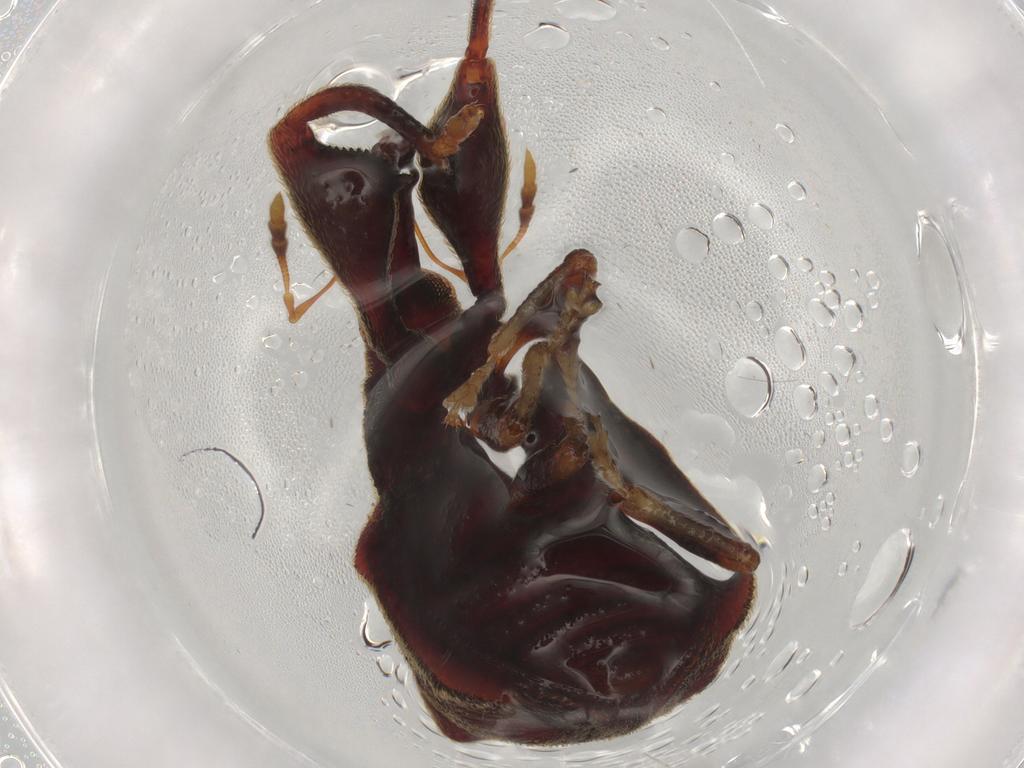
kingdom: Animalia
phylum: Arthropoda
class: Insecta
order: Coleoptera
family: Curculionidae
